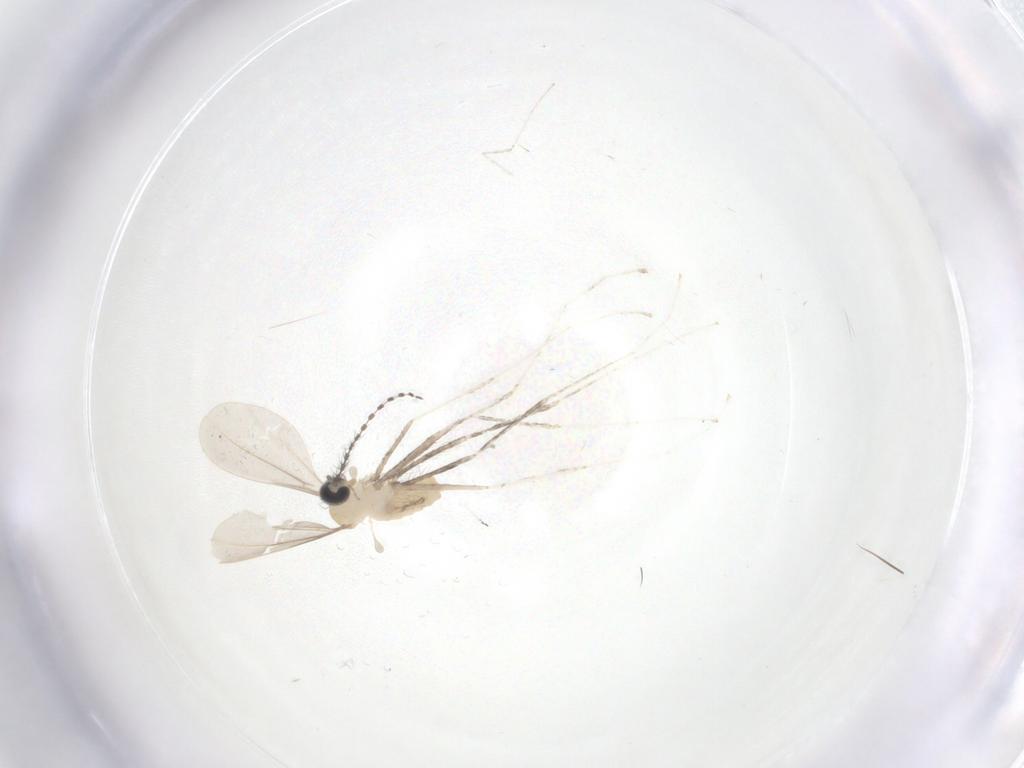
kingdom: Animalia
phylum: Arthropoda
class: Insecta
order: Diptera
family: Cecidomyiidae
